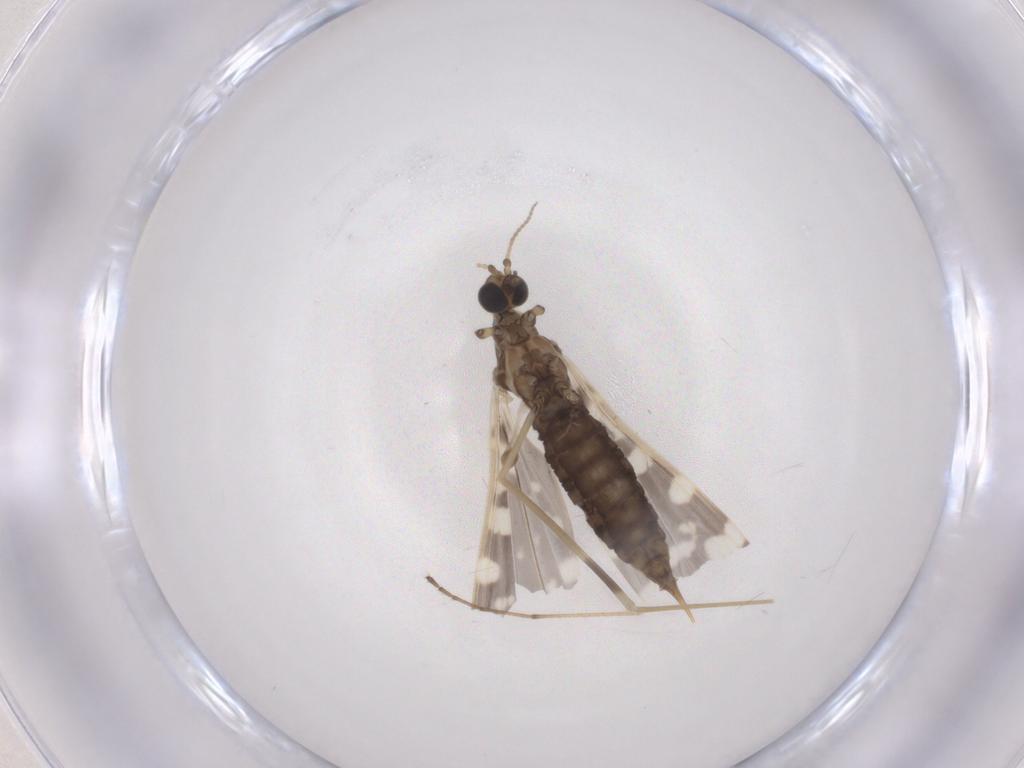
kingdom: Animalia
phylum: Arthropoda
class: Insecta
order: Diptera
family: Limoniidae
